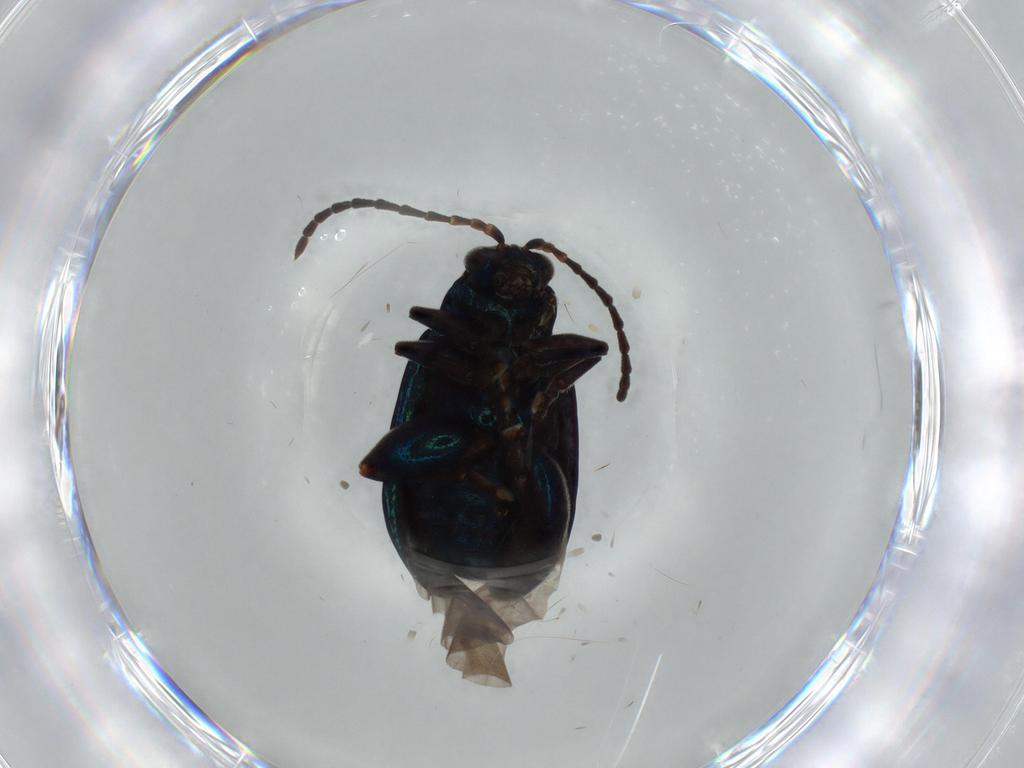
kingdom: Animalia
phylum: Arthropoda
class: Insecta
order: Coleoptera
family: Chrysomelidae
